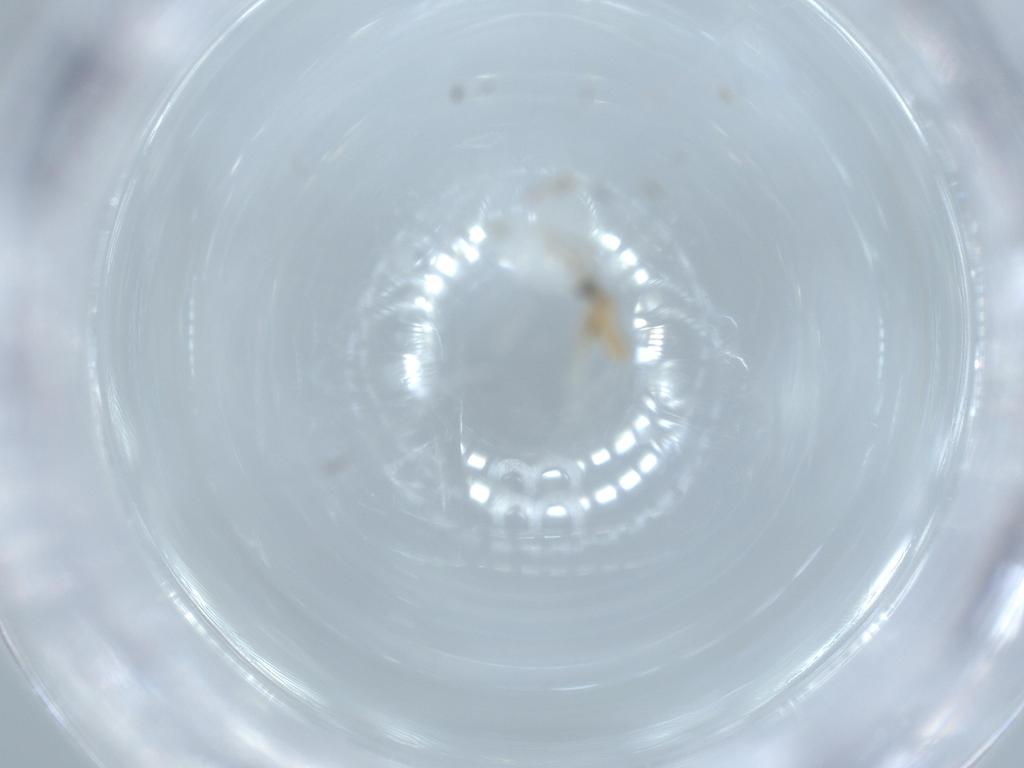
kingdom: Animalia
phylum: Arthropoda
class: Insecta
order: Diptera
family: Cecidomyiidae
